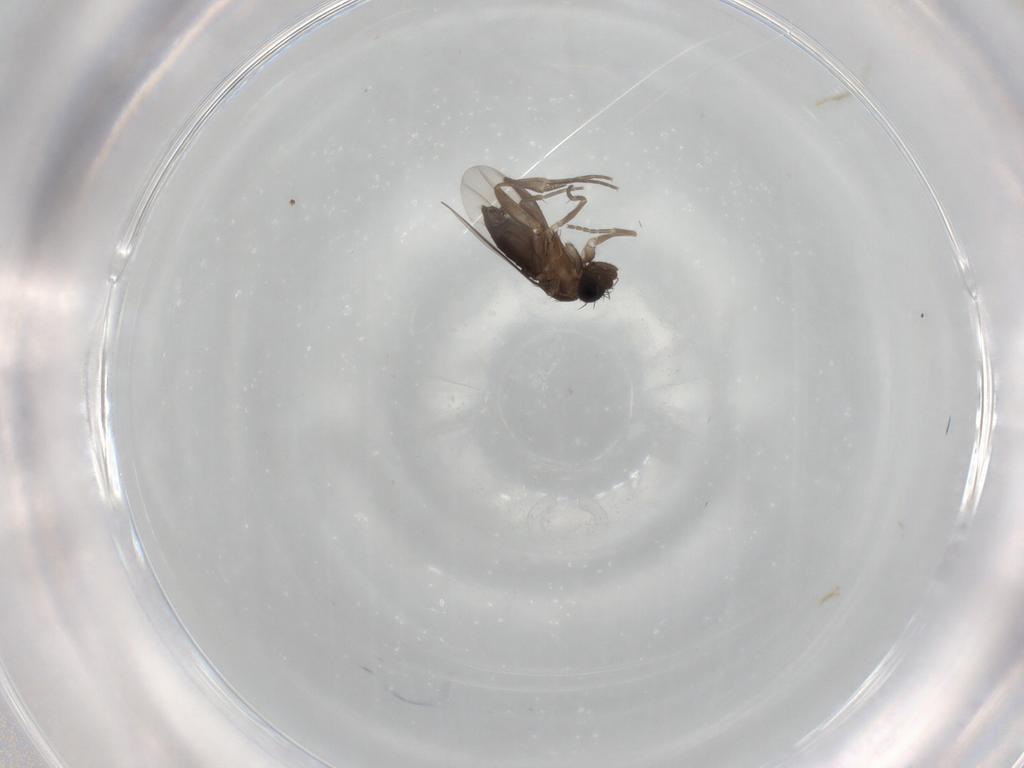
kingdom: Animalia
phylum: Arthropoda
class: Insecta
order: Diptera
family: Phoridae
